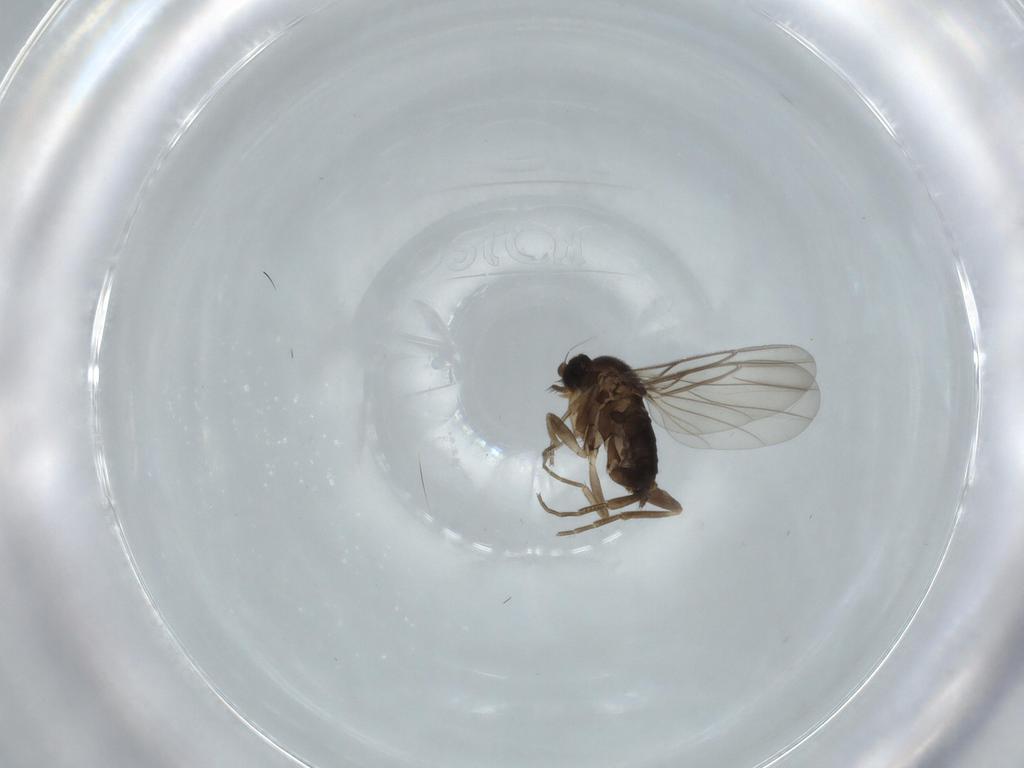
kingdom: Animalia
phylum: Arthropoda
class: Insecta
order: Diptera
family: Phoridae
